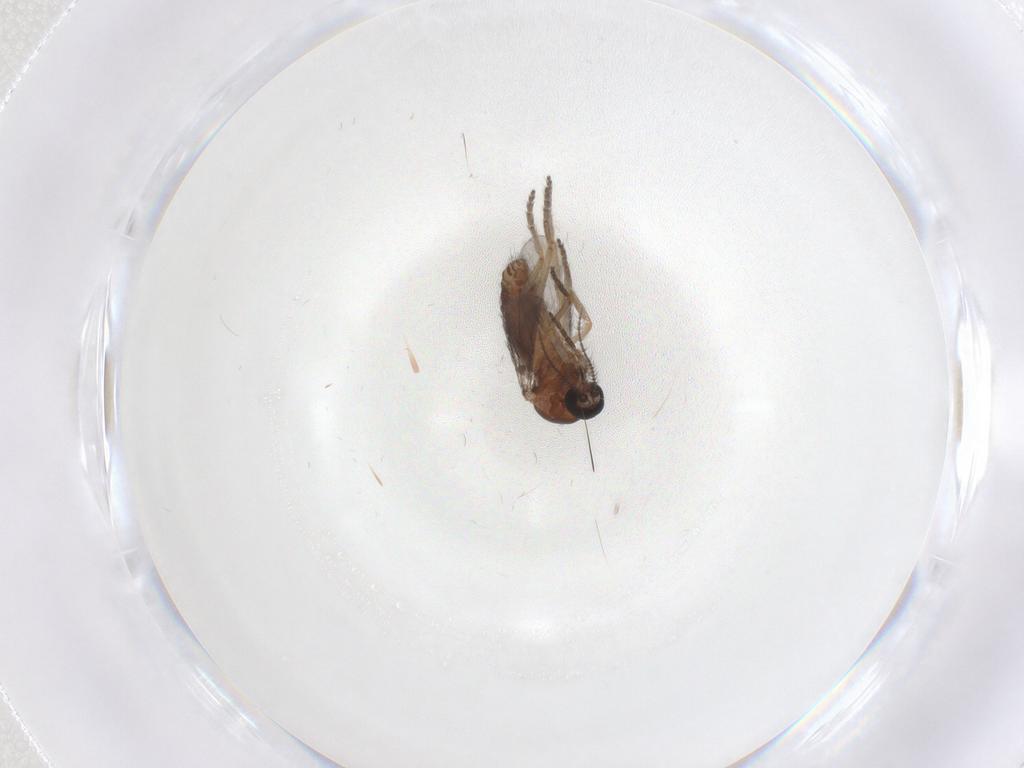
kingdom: Animalia
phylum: Arthropoda
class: Insecta
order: Diptera
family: Ceratopogonidae
